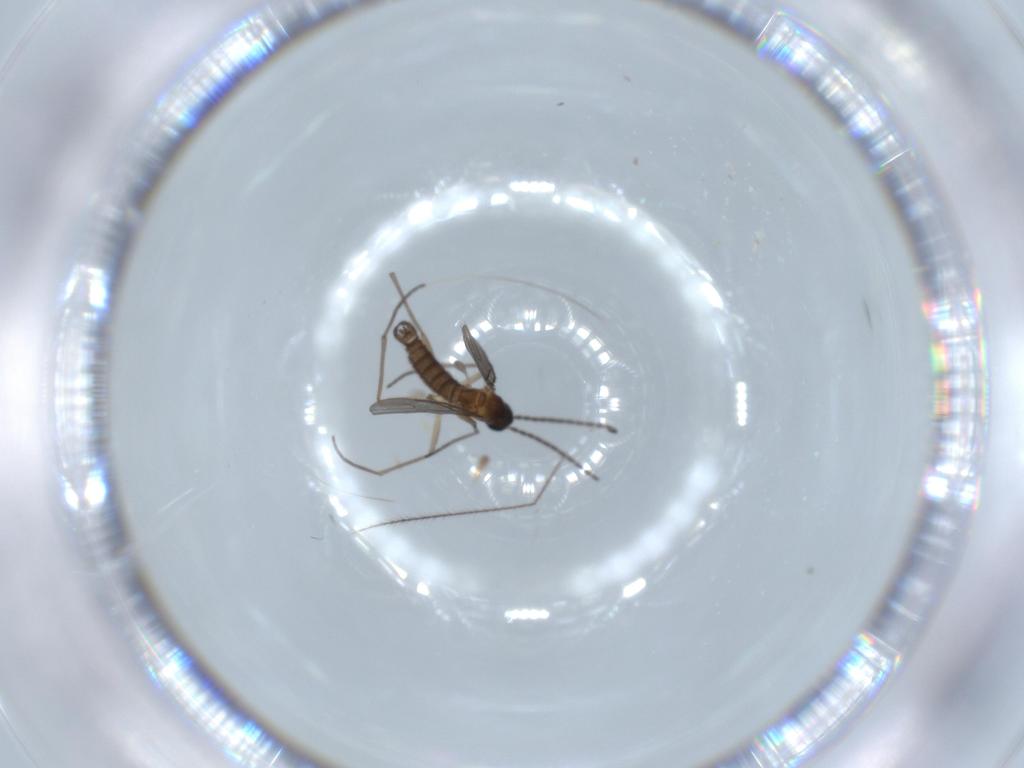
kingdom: Animalia
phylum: Arthropoda
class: Insecta
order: Diptera
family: Sciaridae
